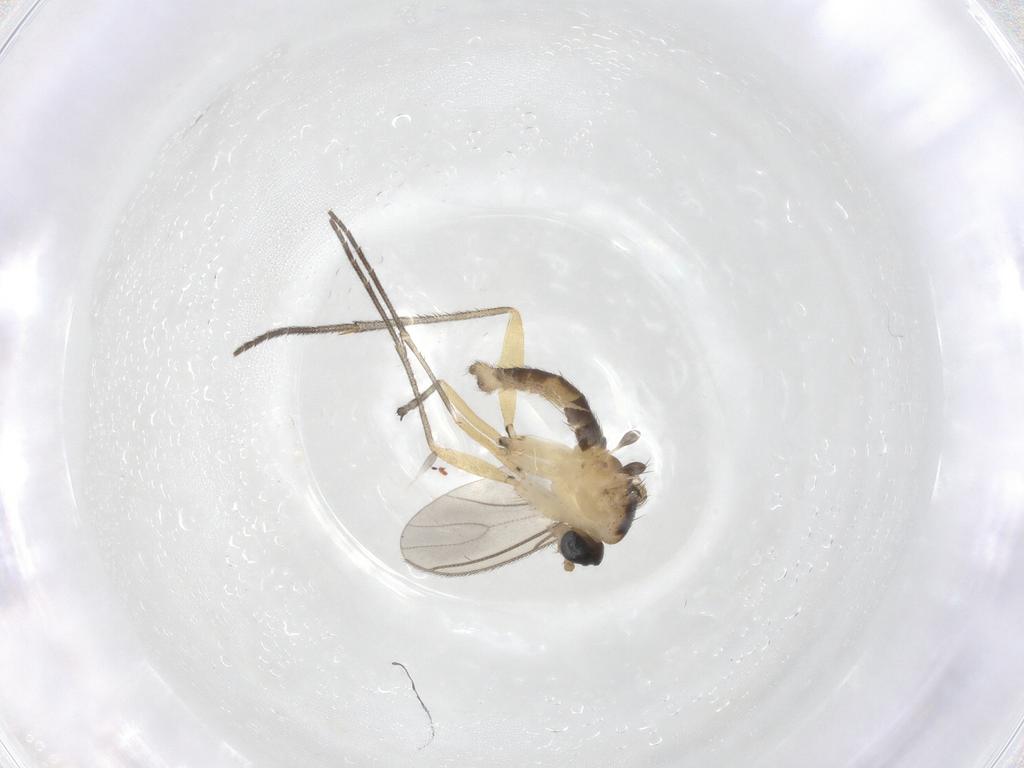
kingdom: Animalia
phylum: Arthropoda
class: Insecta
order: Diptera
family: Sciaridae
